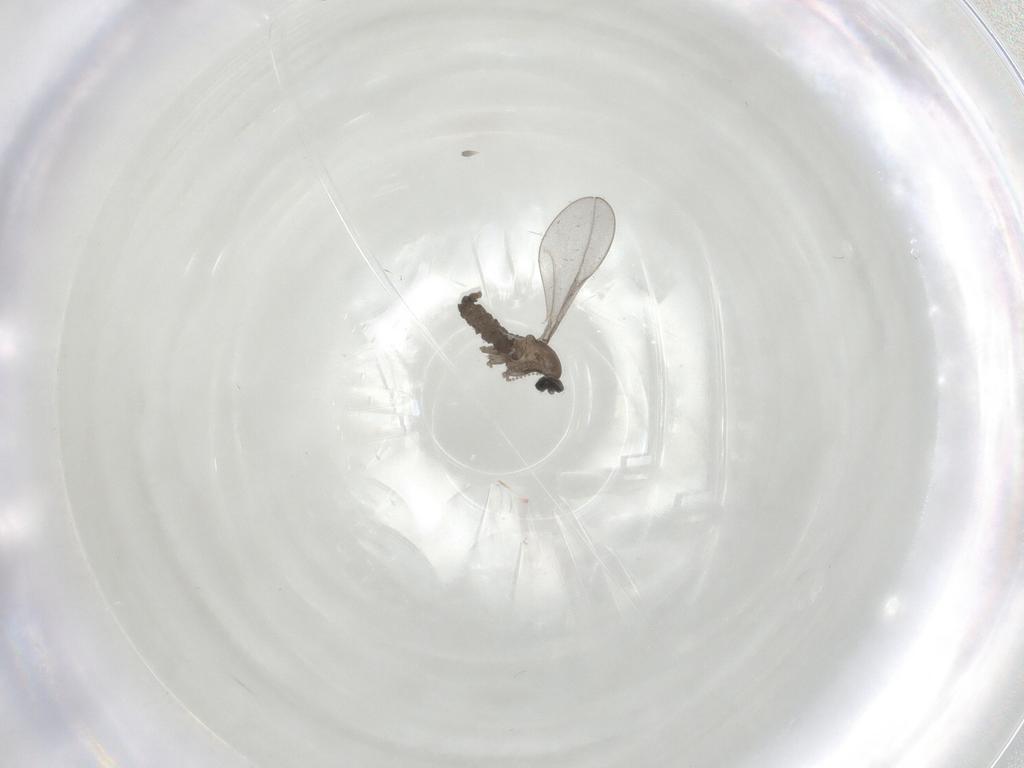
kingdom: Animalia
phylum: Arthropoda
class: Insecta
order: Diptera
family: Cecidomyiidae
